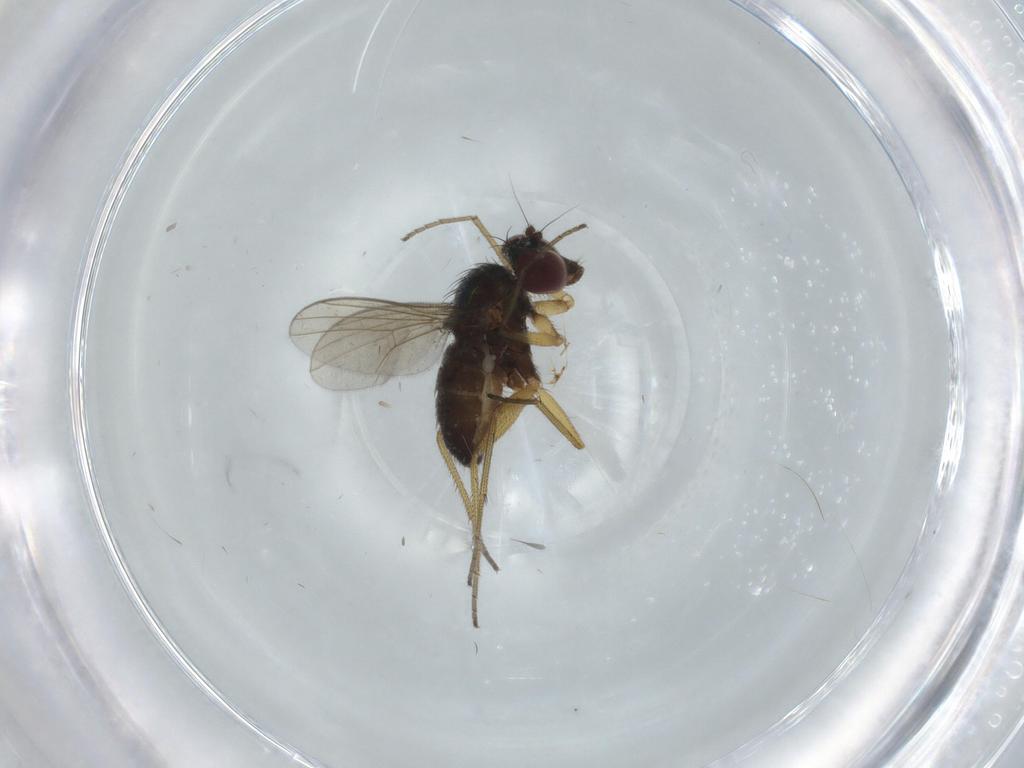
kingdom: Animalia
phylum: Arthropoda
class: Insecta
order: Diptera
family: Dolichopodidae
